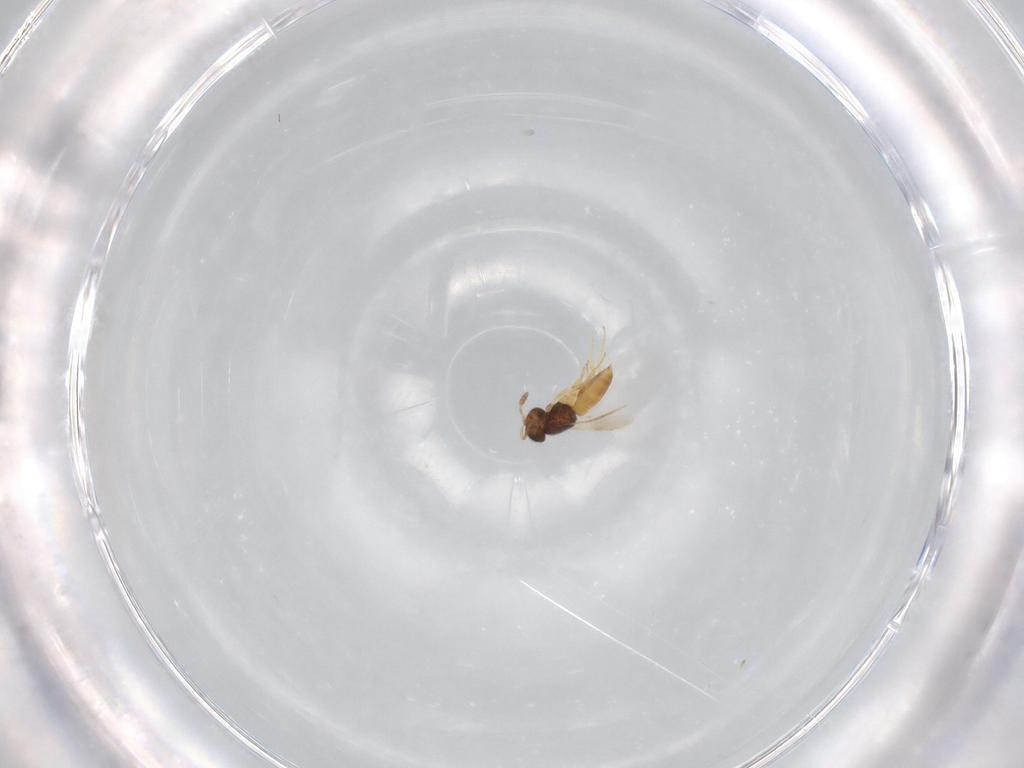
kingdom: Animalia
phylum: Arthropoda
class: Insecta
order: Hymenoptera
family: Scelionidae
